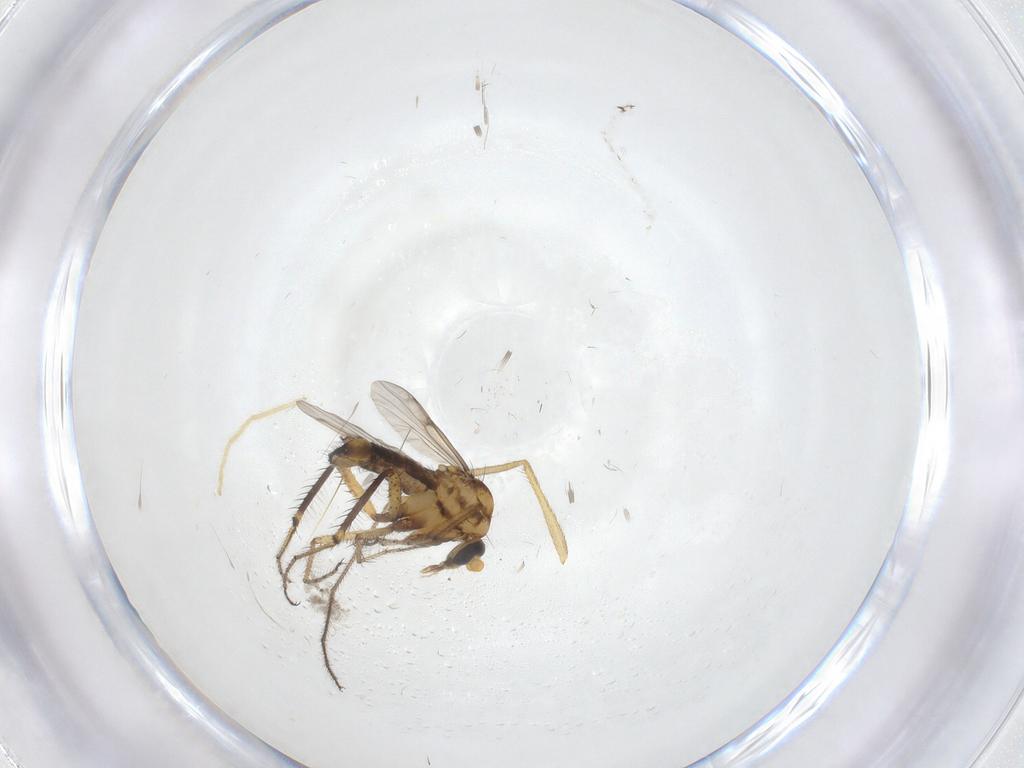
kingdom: Animalia
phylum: Arthropoda
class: Insecta
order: Diptera
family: Ceratopogonidae
